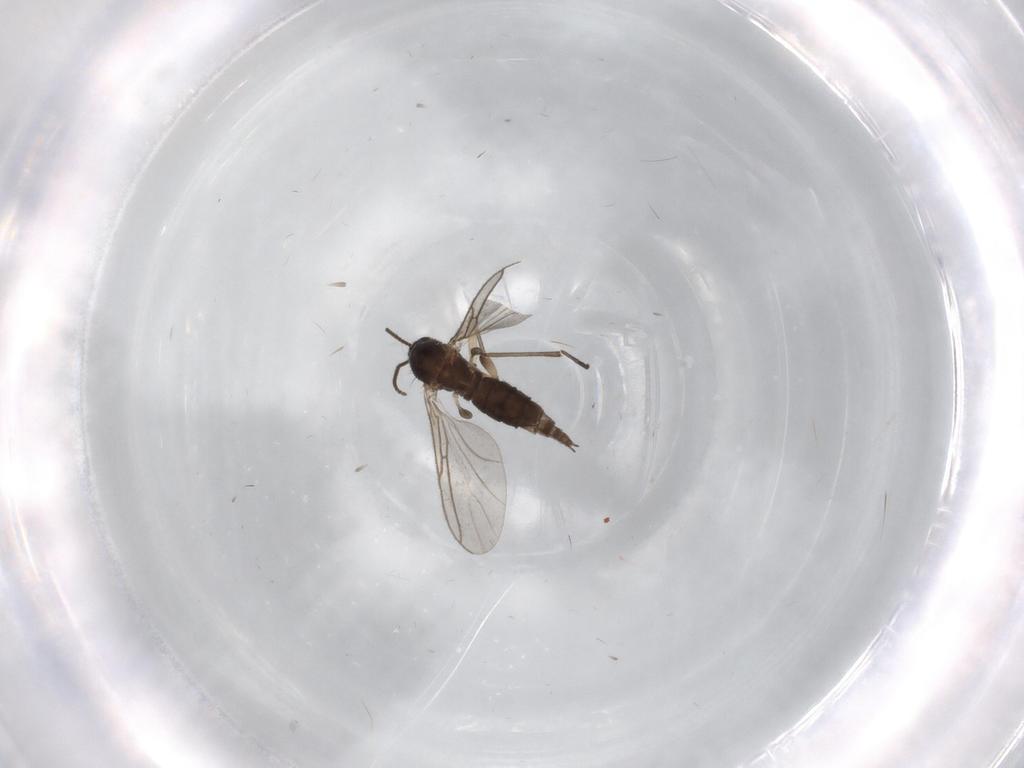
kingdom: Animalia
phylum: Arthropoda
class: Insecta
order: Diptera
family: Sciaridae
